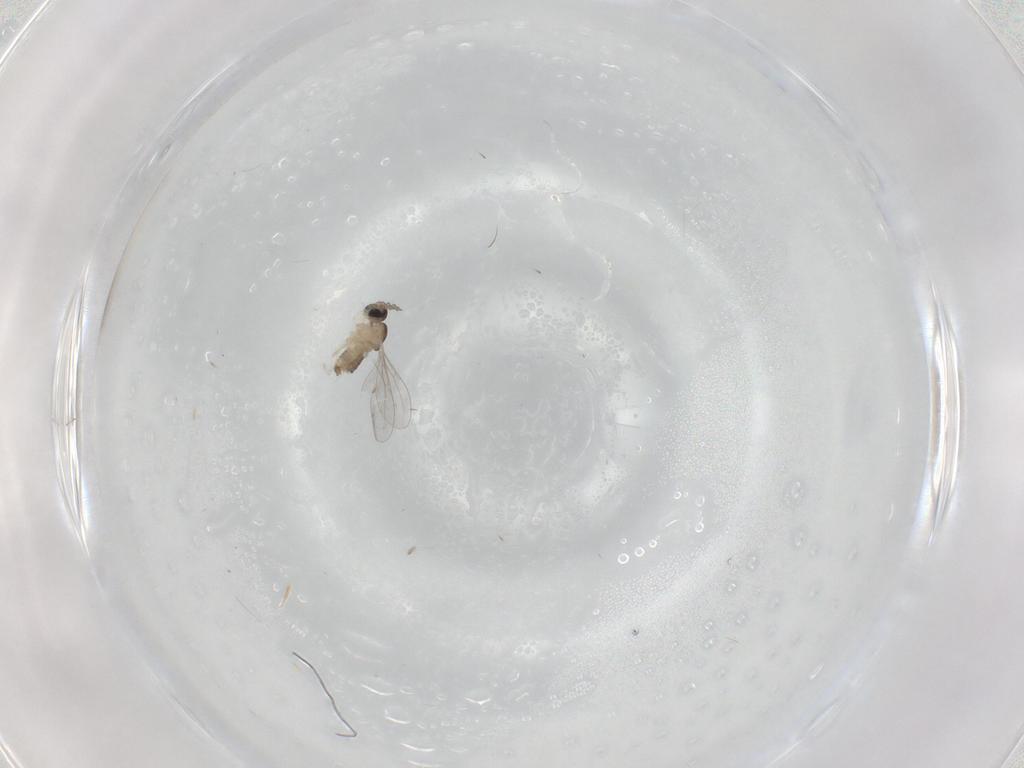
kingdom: Animalia
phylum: Arthropoda
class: Insecta
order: Diptera
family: Cecidomyiidae
